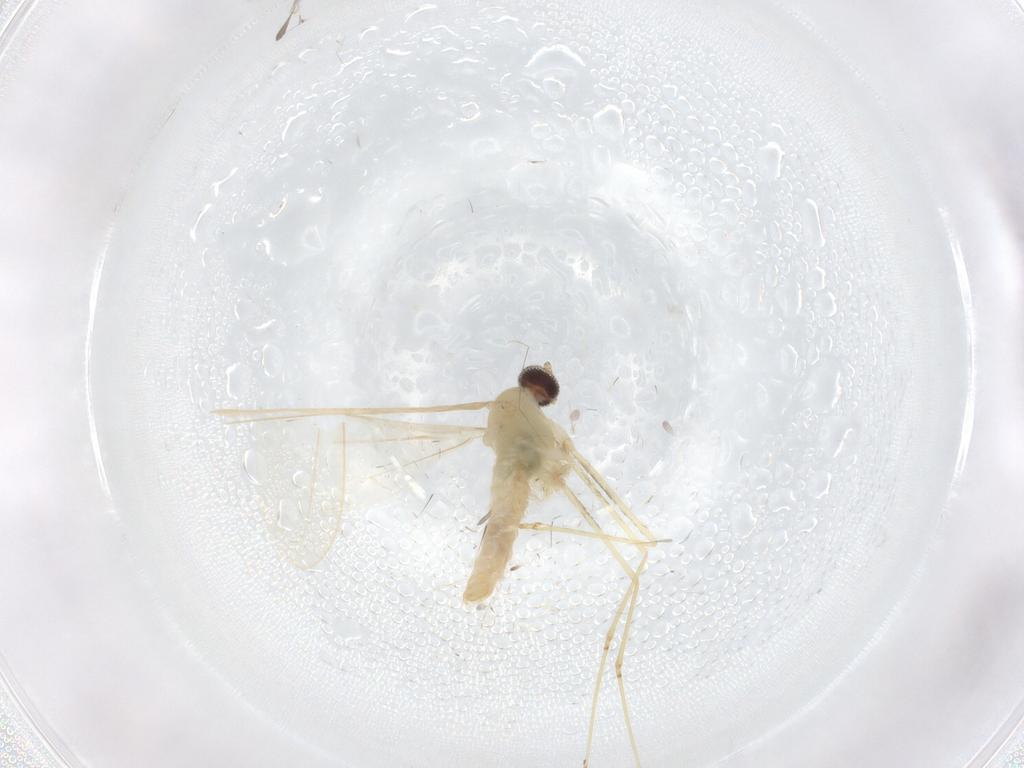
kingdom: Animalia
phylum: Arthropoda
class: Insecta
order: Diptera
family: Cecidomyiidae
